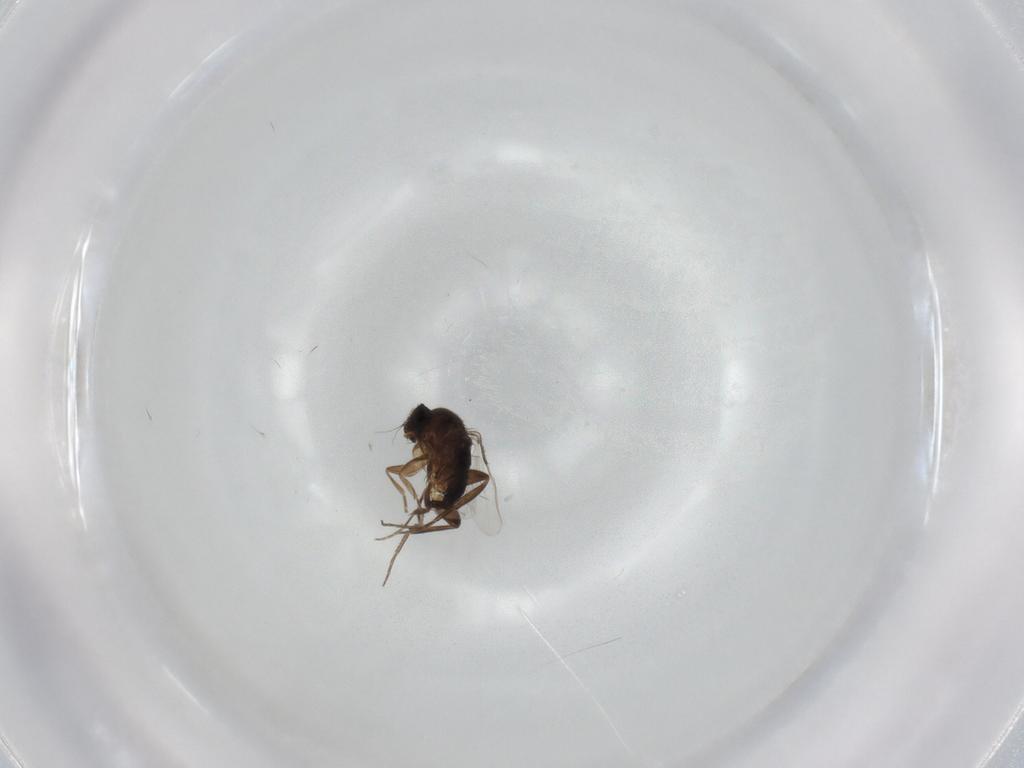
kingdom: Animalia
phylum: Arthropoda
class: Insecta
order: Diptera
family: Phoridae
